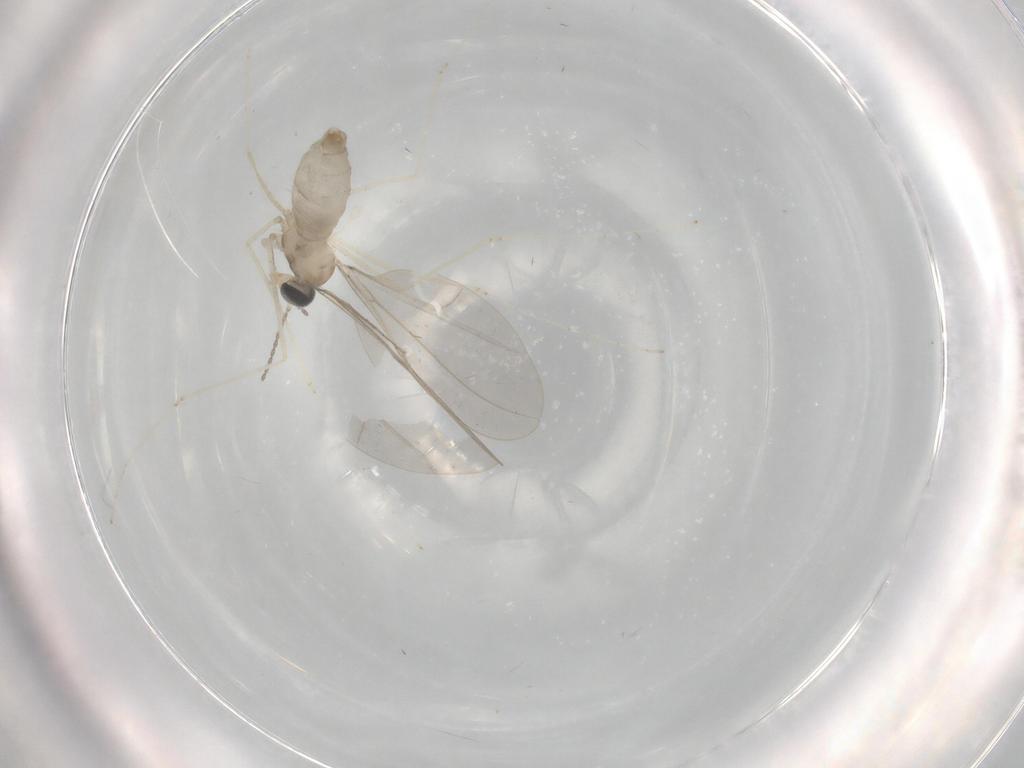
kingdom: Animalia
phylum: Arthropoda
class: Insecta
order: Diptera
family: Cecidomyiidae
